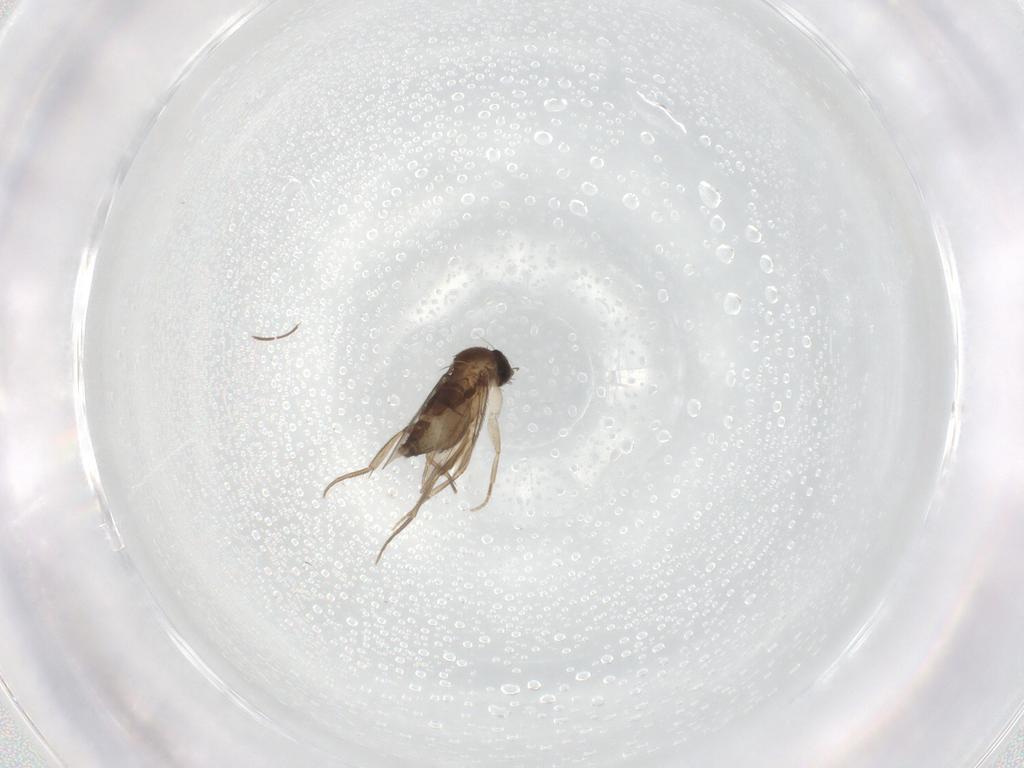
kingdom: Animalia
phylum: Arthropoda
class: Insecta
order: Diptera
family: Phoridae
